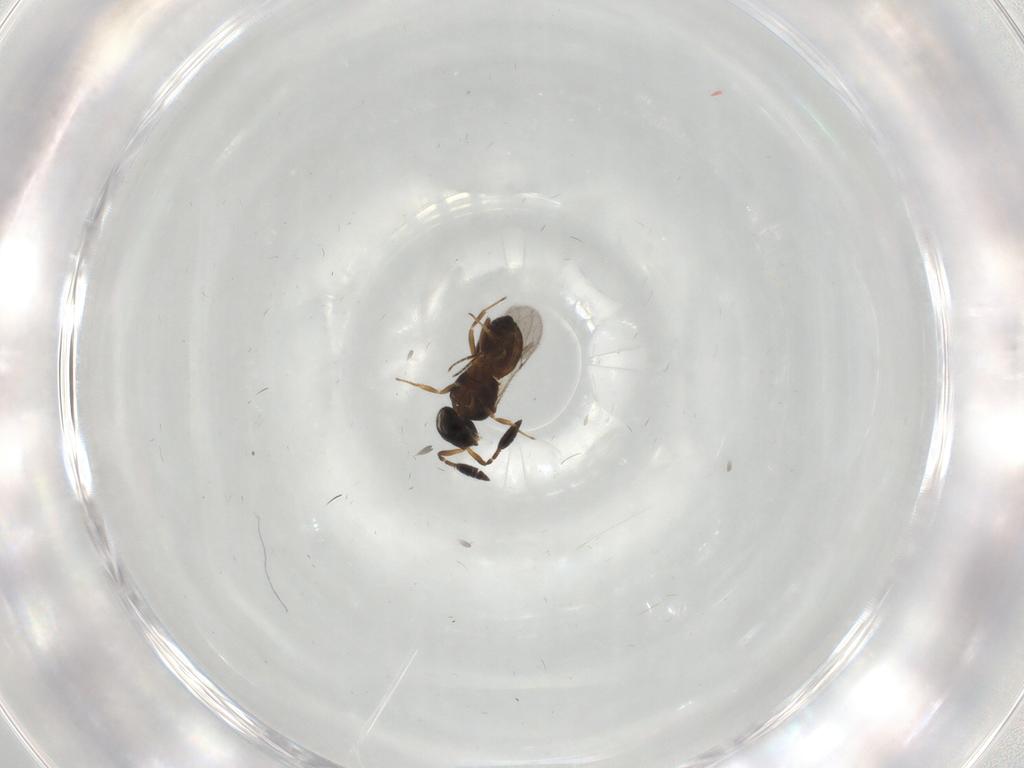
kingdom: Animalia
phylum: Arthropoda
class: Insecta
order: Hymenoptera
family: Scelionidae
